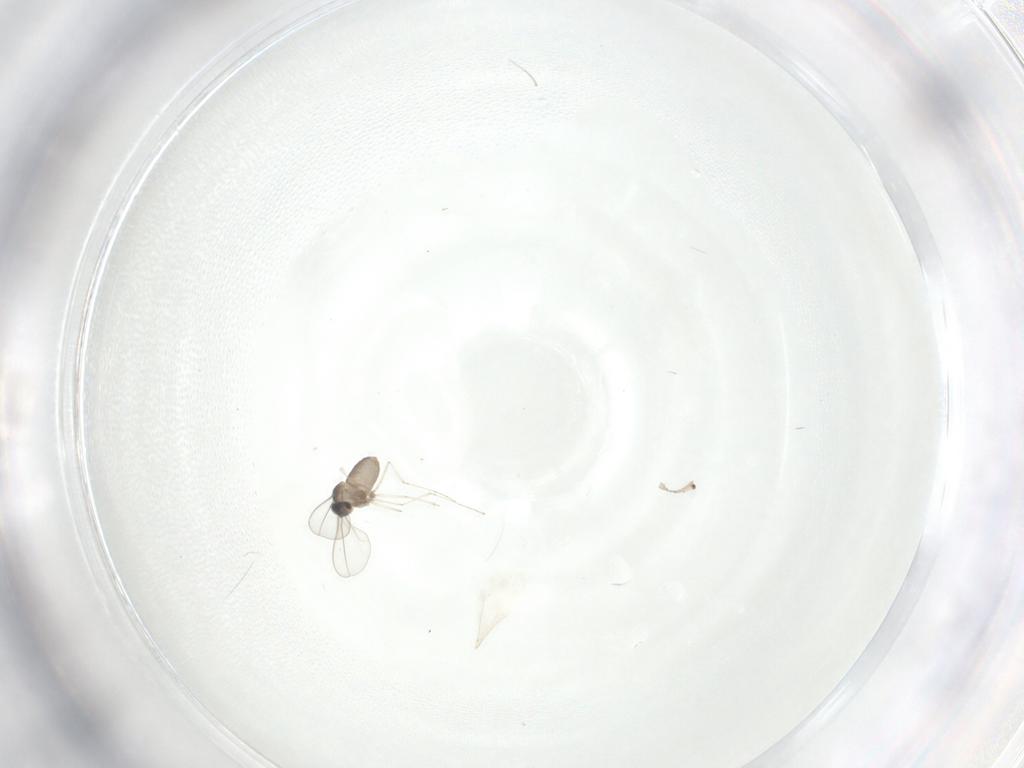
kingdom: Animalia
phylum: Arthropoda
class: Insecta
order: Diptera
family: Cecidomyiidae
